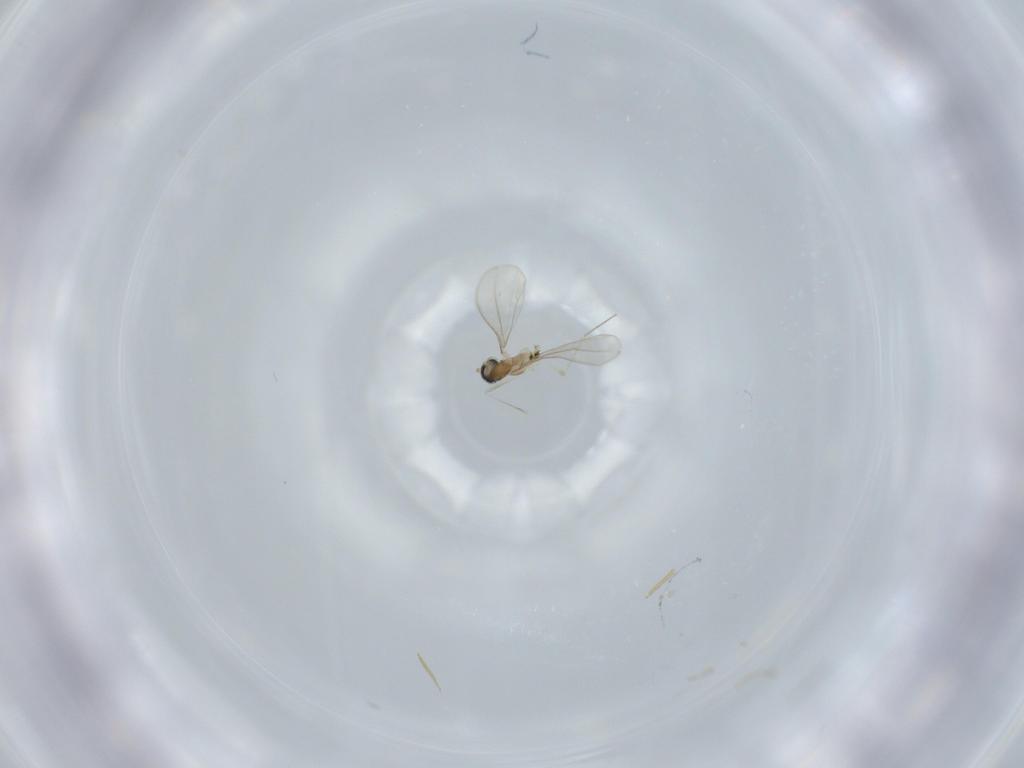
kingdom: Animalia
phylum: Arthropoda
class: Insecta
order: Diptera
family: Cecidomyiidae
